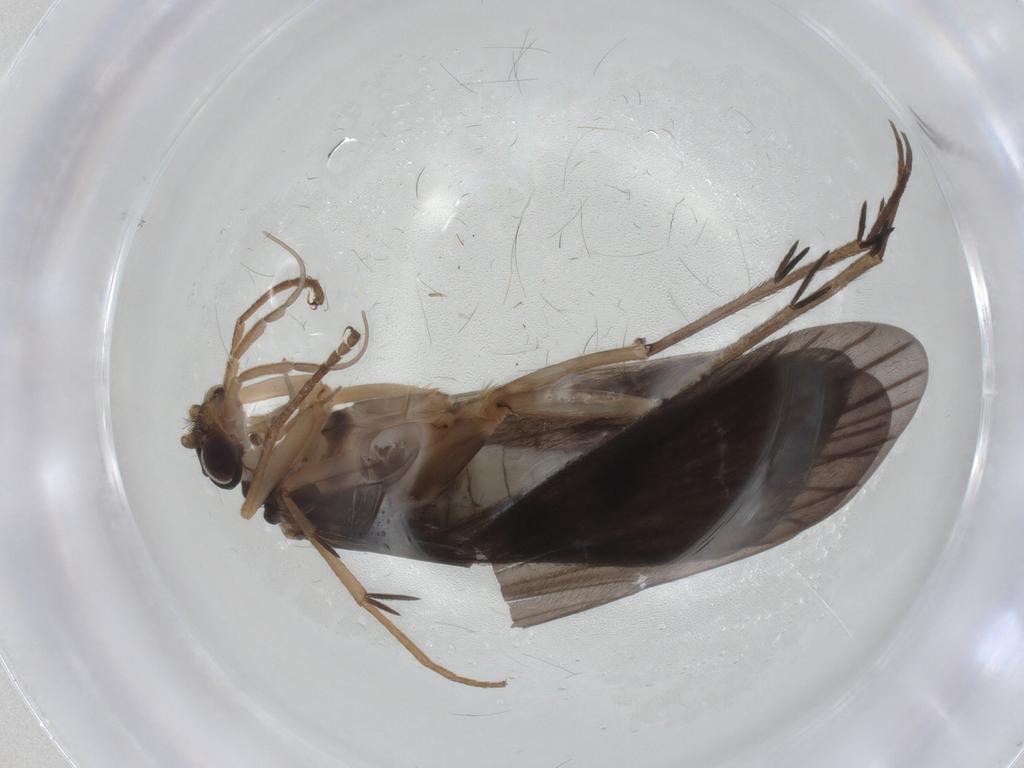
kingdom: Animalia
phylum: Arthropoda
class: Insecta
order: Trichoptera
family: Philopotamidae
